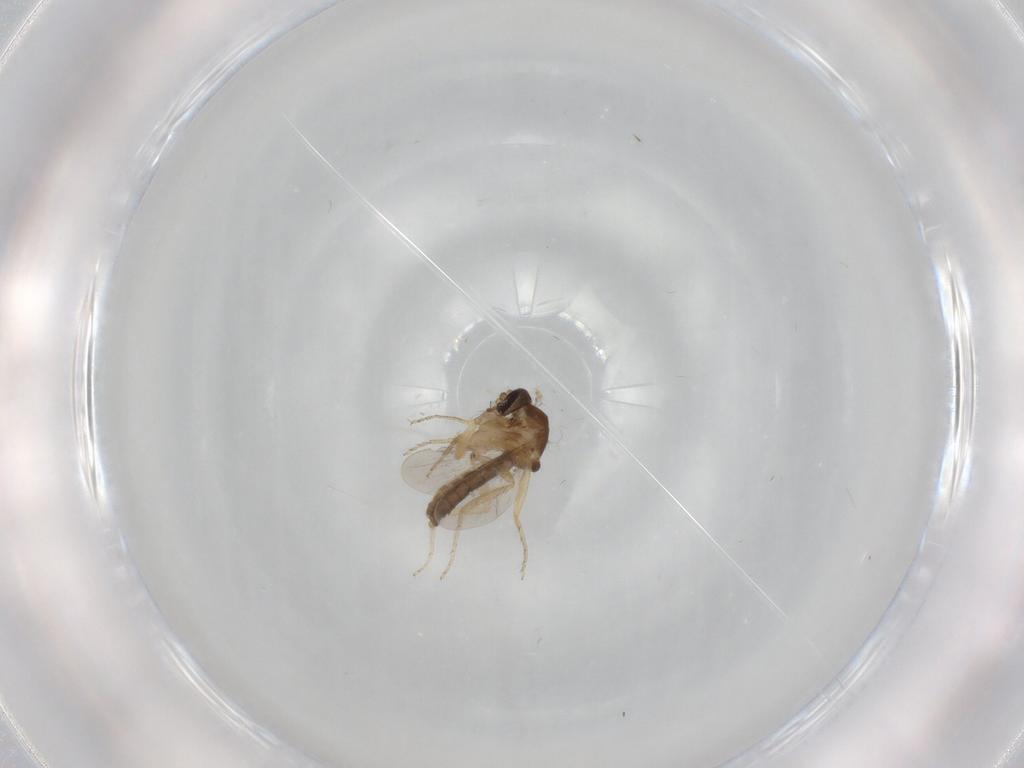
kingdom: Animalia
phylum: Arthropoda
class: Insecta
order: Diptera
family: Ceratopogonidae
